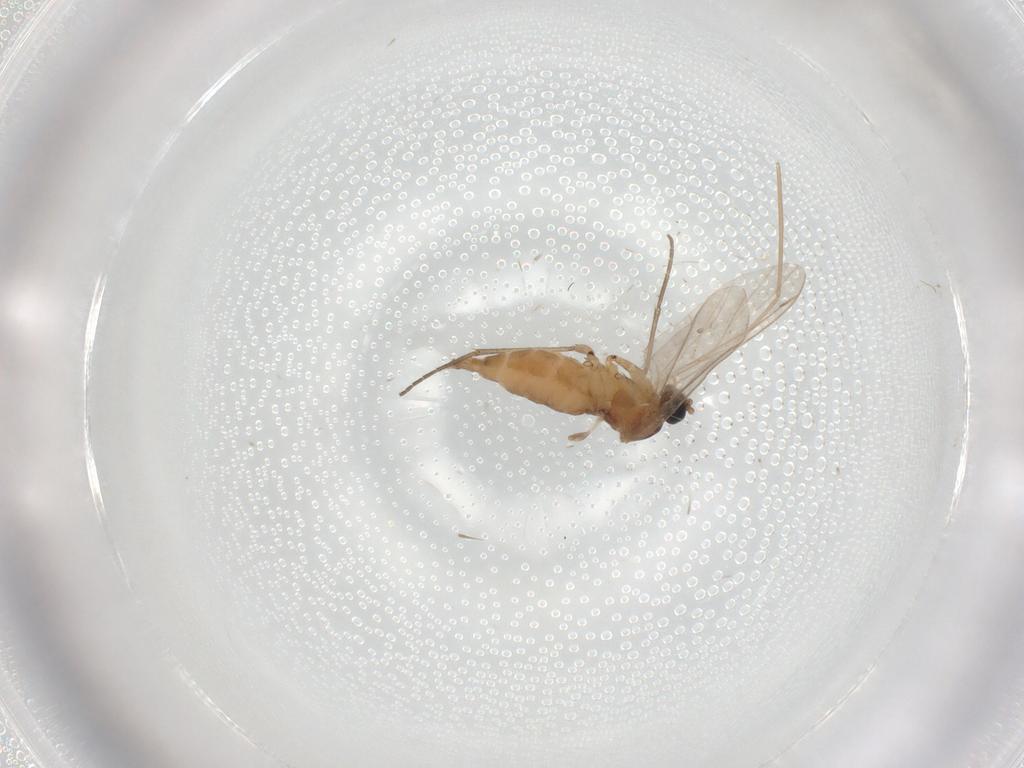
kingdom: Animalia
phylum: Arthropoda
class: Insecta
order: Diptera
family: Sciaridae
